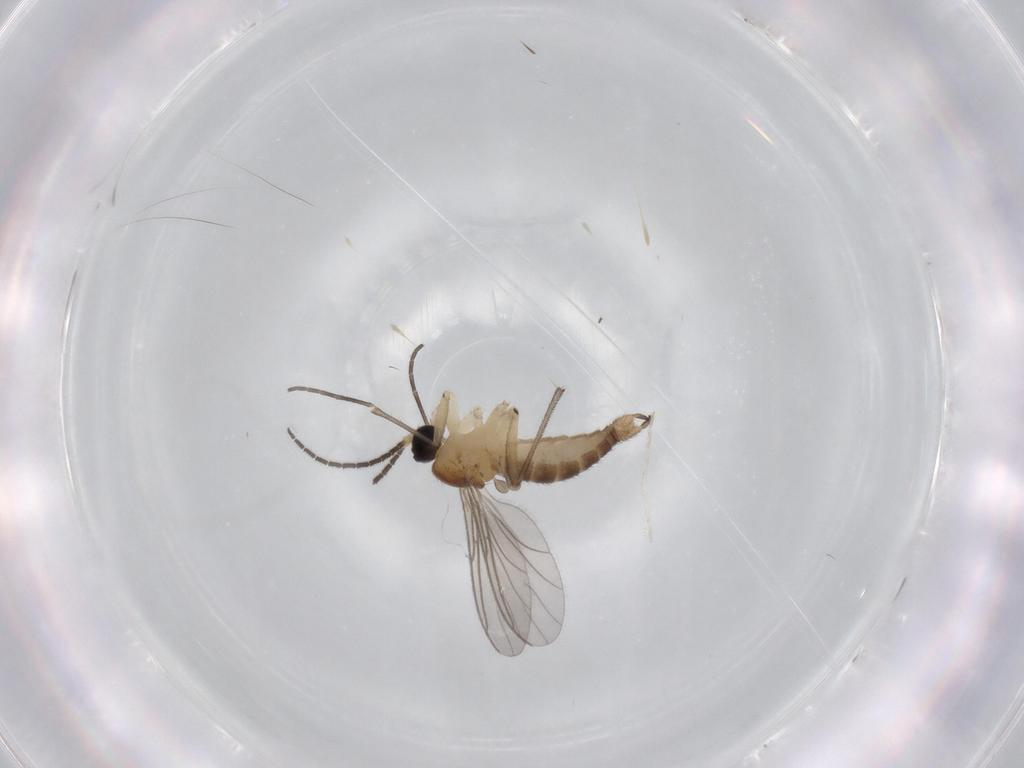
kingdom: Animalia
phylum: Arthropoda
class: Insecta
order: Diptera
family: Sciaridae
